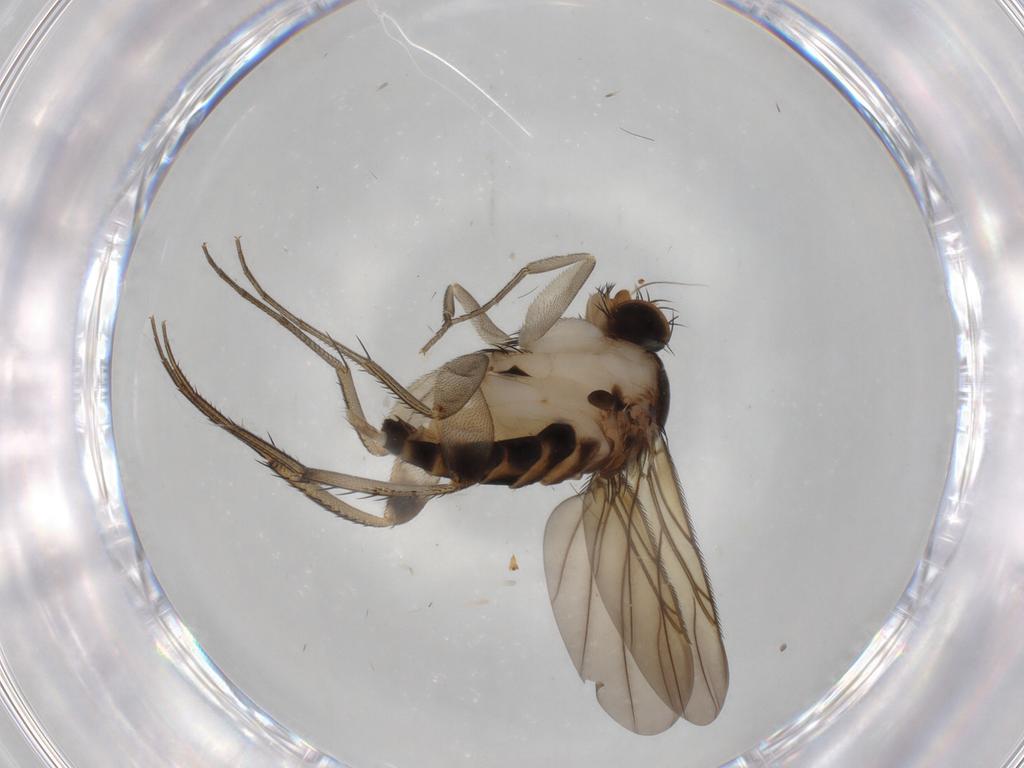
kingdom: Animalia
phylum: Arthropoda
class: Insecta
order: Diptera
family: Phoridae
